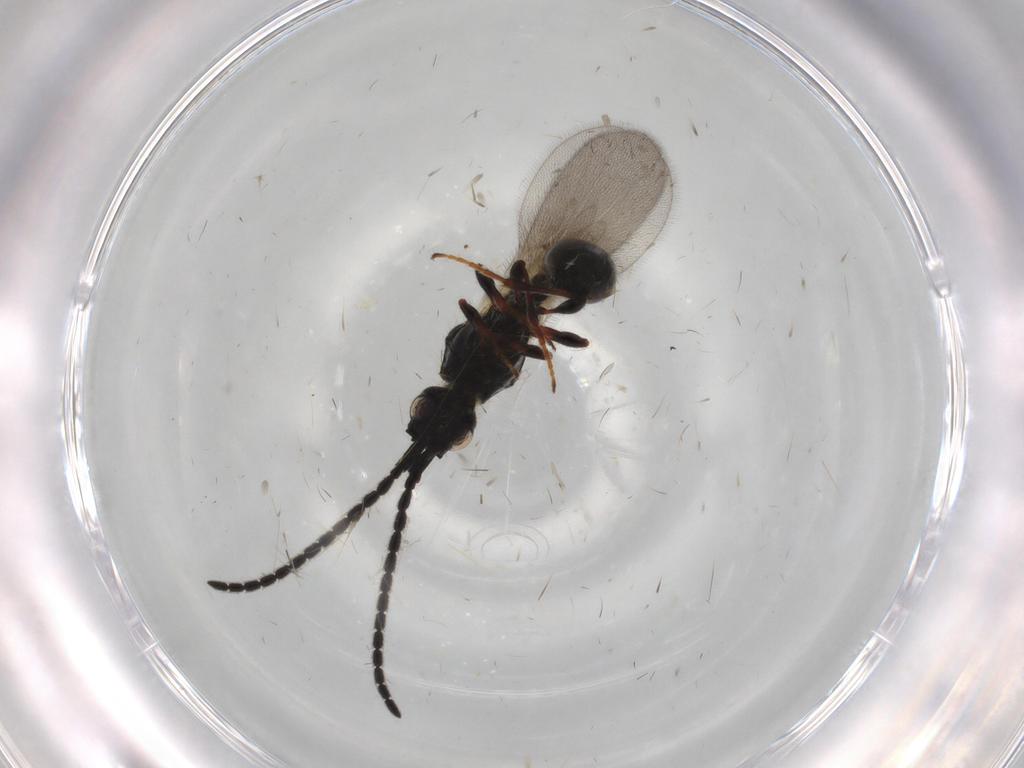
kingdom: Animalia
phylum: Arthropoda
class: Insecta
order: Hymenoptera
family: Diapriidae
